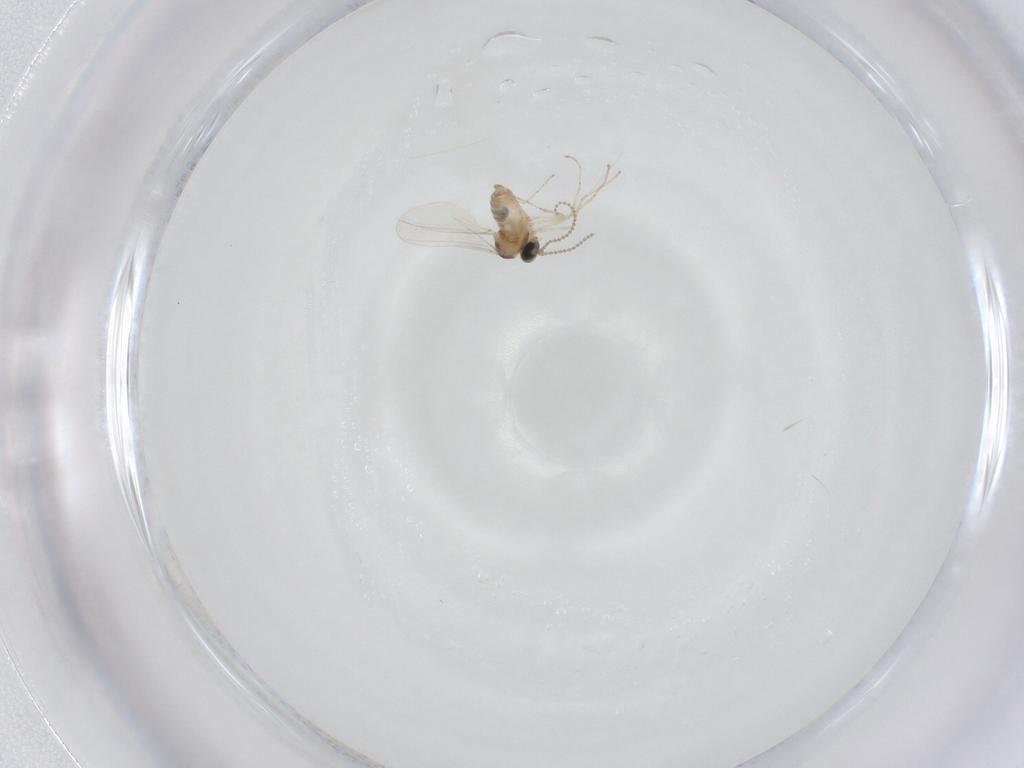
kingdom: Animalia
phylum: Arthropoda
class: Insecta
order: Diptera
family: Cecidomyiidae
